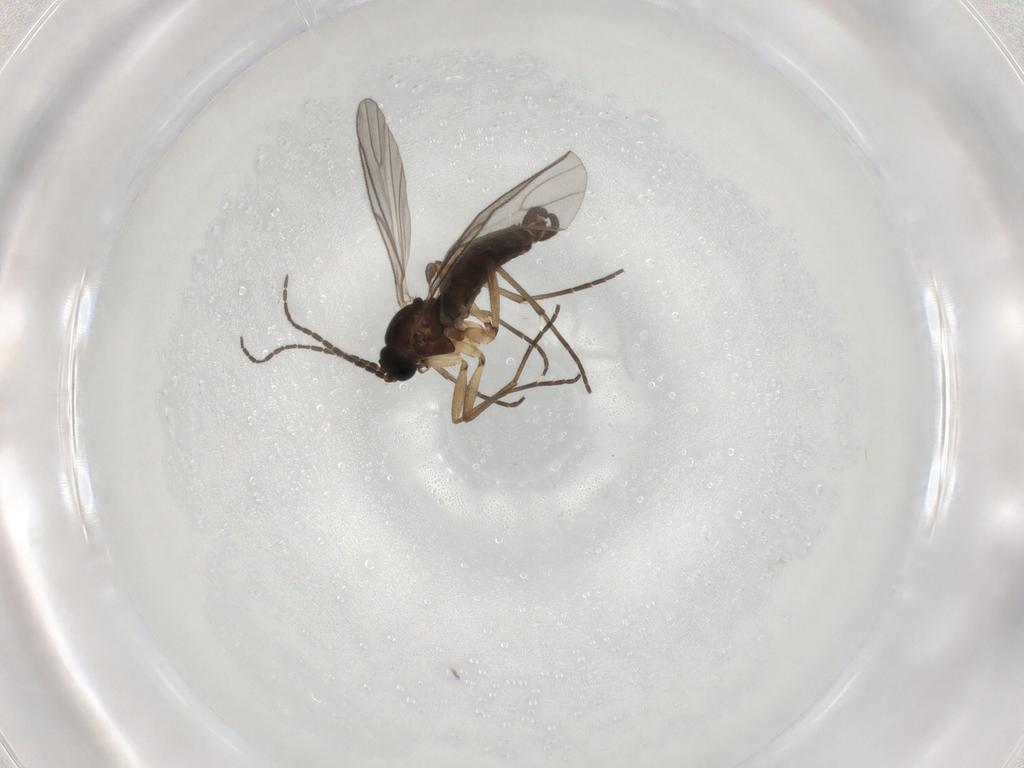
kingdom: Animalia
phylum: Arthropoda
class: Insecta
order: Diptera
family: Sciaridae
